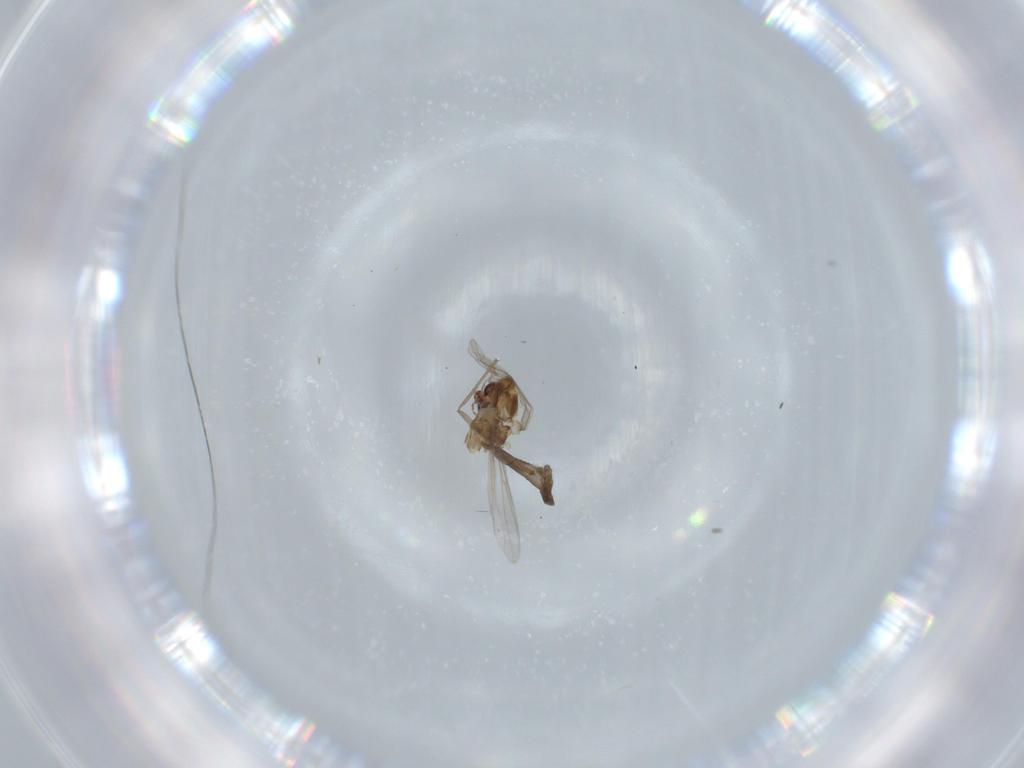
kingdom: Animalia
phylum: Arthropoda
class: Insecta
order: Diptera
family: Chironomidae
